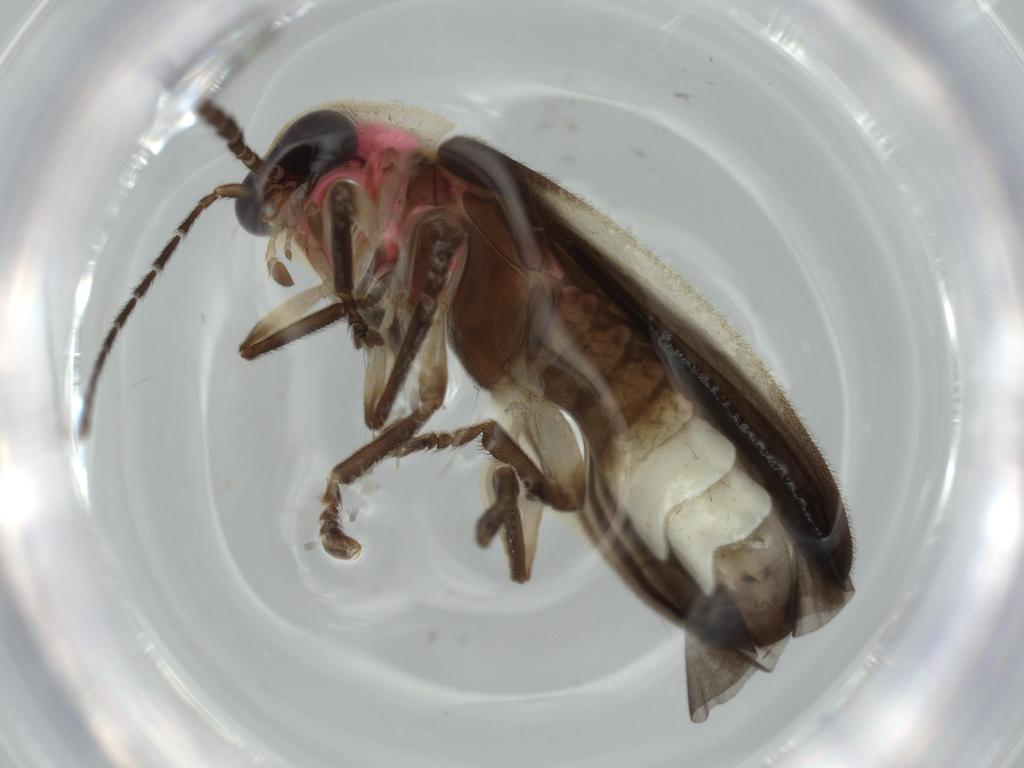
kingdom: Animalia
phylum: Arthropoda
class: Insecta
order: Coleoptera
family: Lampyridae
